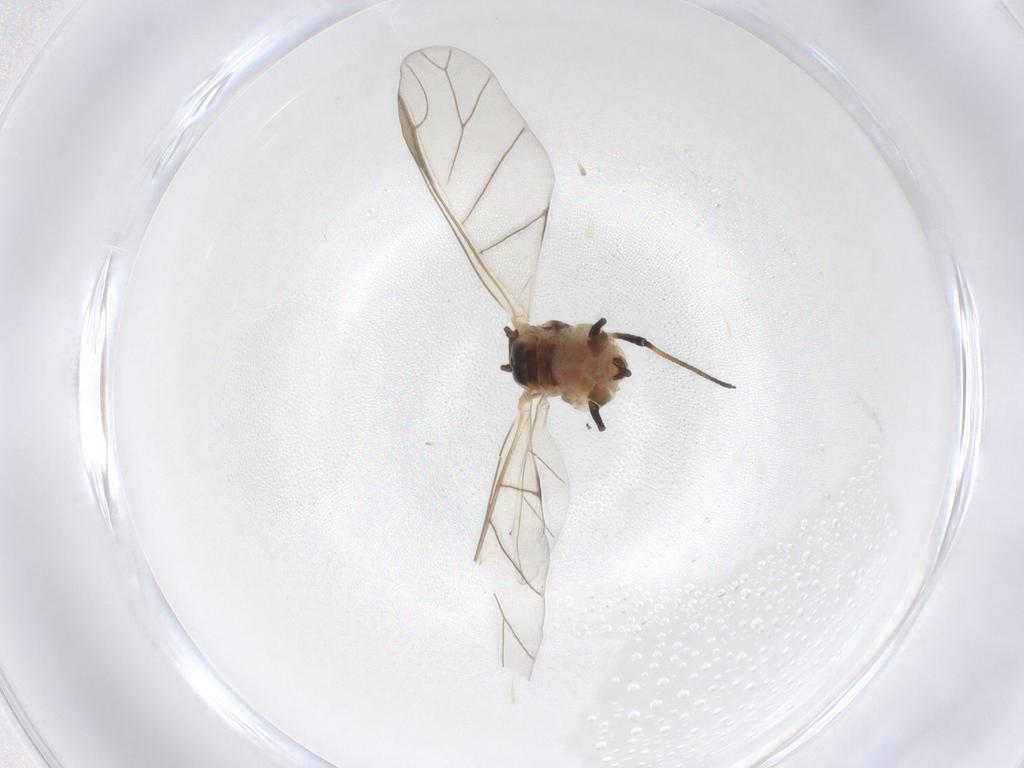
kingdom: Animalia
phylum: Arthropoda
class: Insecta
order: Hemiptera
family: Aphididae
